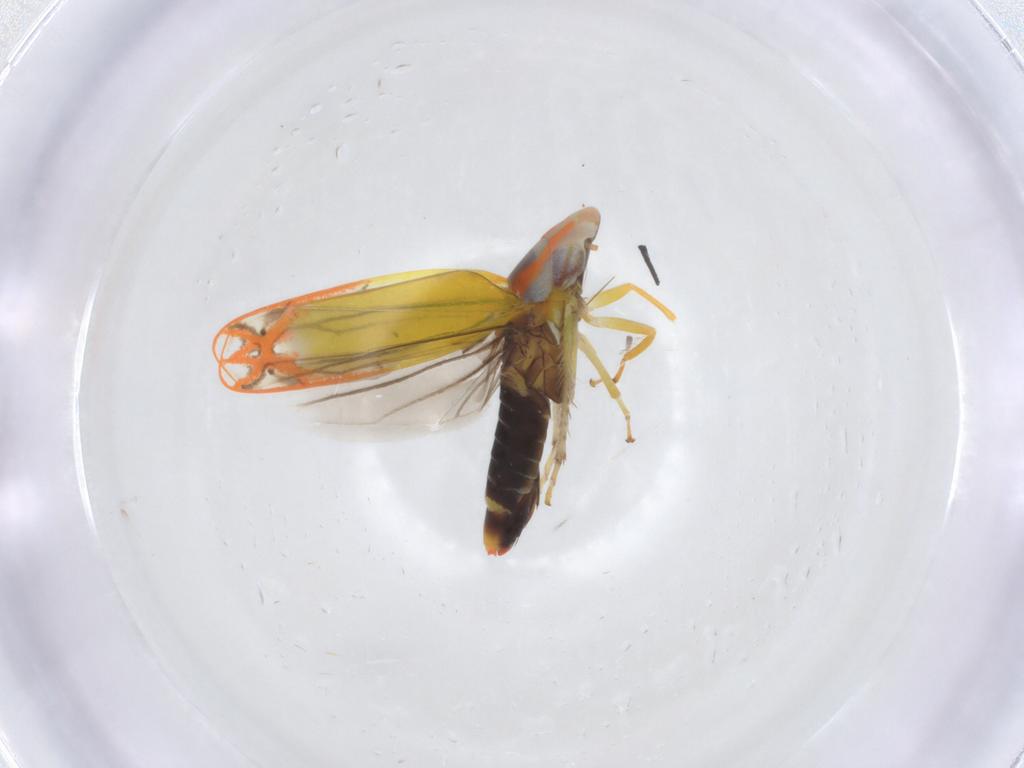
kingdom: Animalia
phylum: Arthropoda
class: Insecta
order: Hemiptera
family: Cicadellidae
